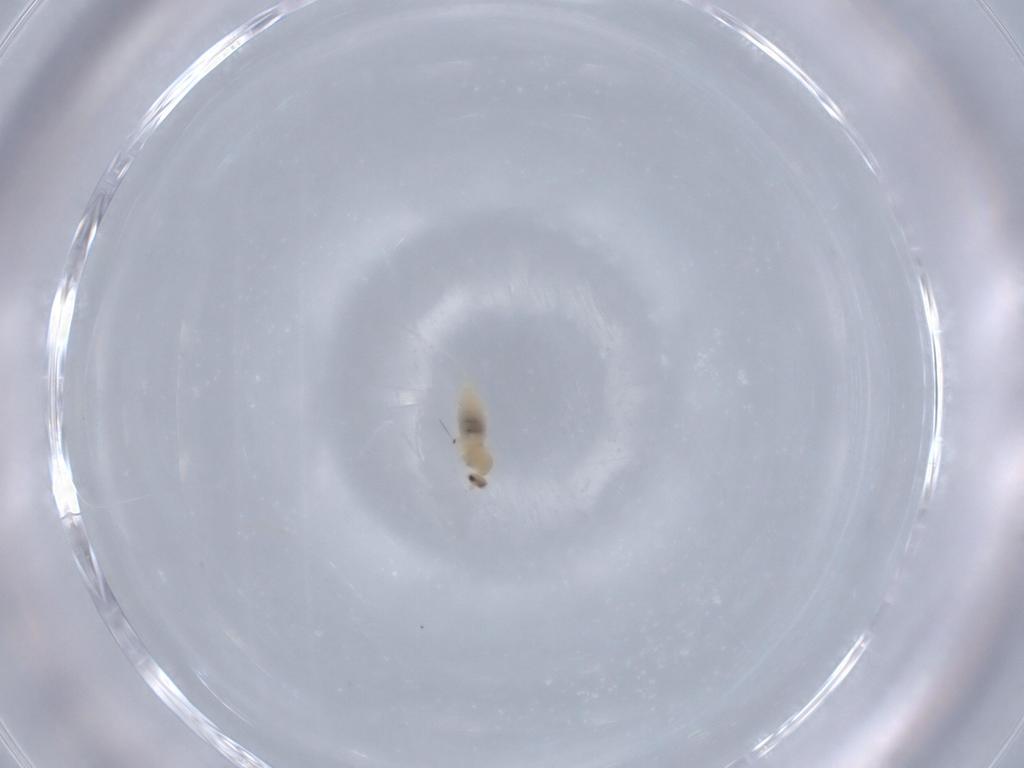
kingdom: Animalia
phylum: Arthropoda
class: Insecta
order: Diptera
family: Cecidomyiidae
